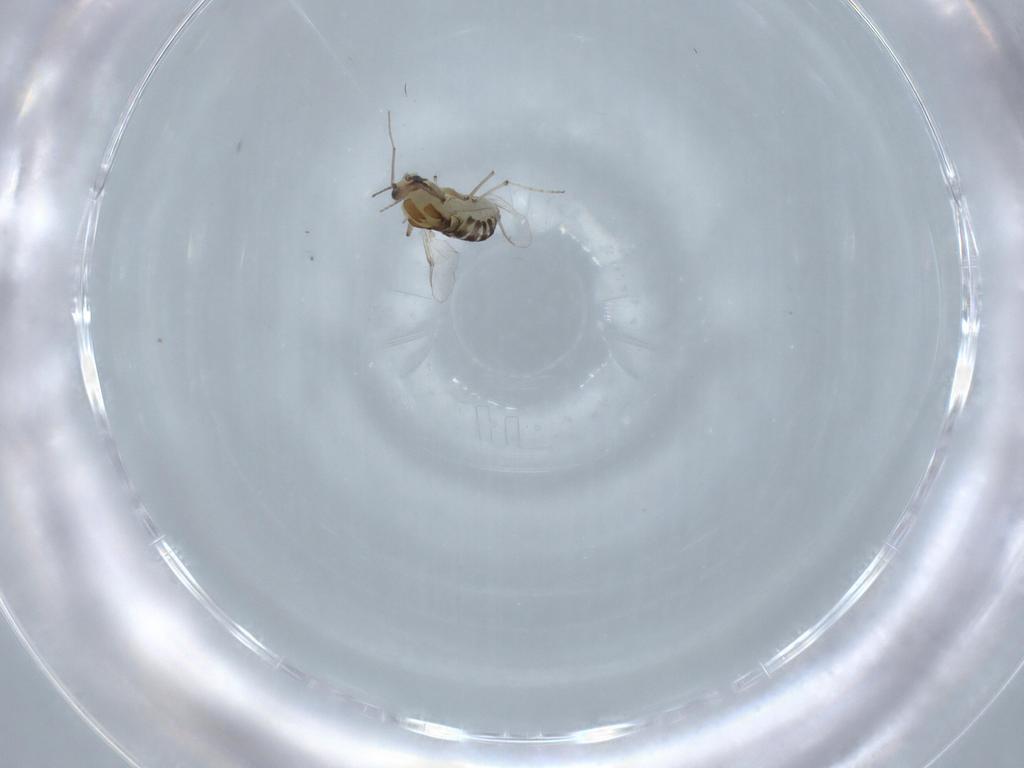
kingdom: Animalia
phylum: Arthropoda
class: Insecta
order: Diptera
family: Chironomidae
